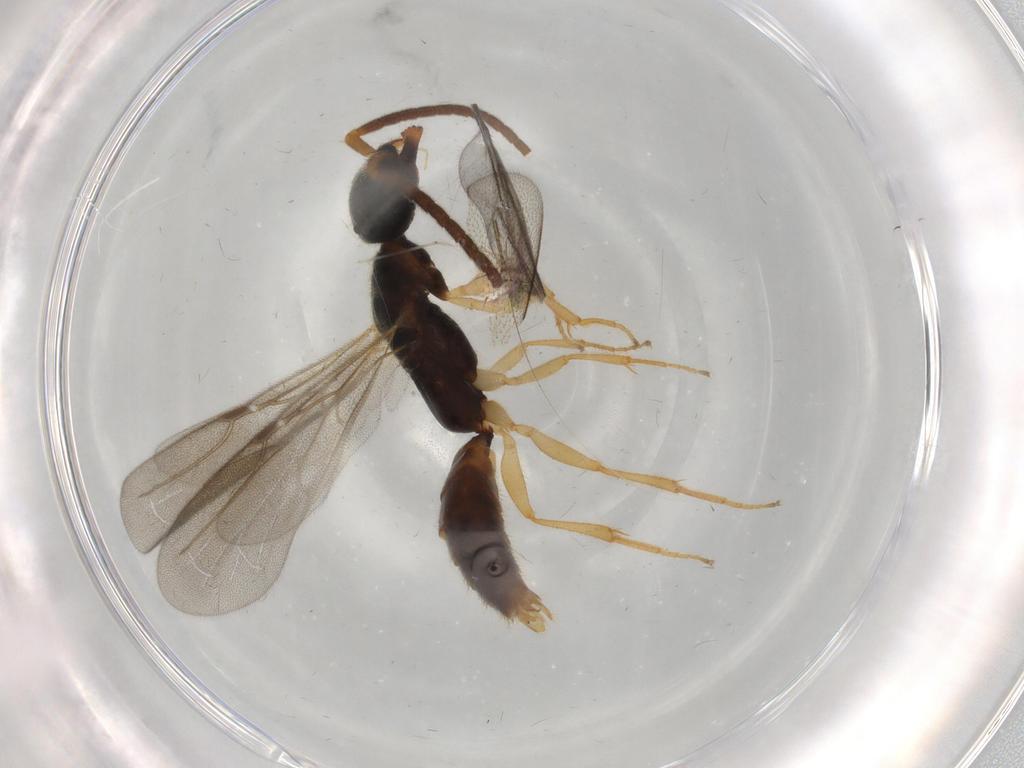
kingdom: Animalia
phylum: Arthropoda
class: Insecta
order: Hymenoptera
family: Bethylidae
